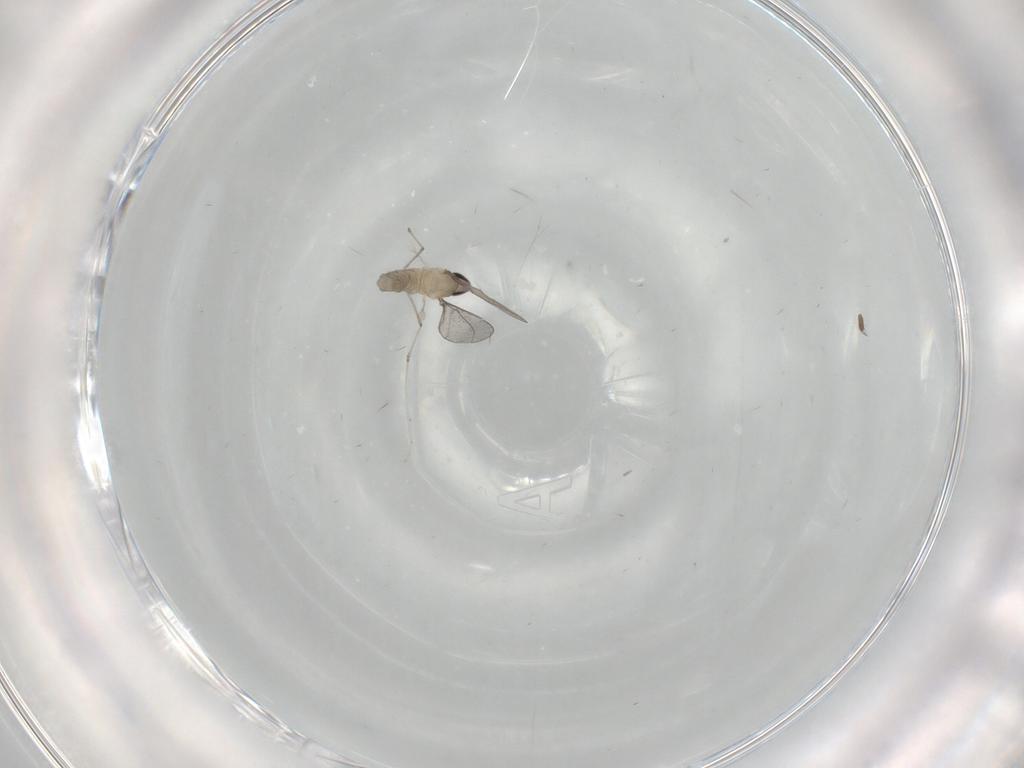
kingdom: Animalia
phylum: Arthropoda
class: Insecta
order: Diptera
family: Cecidomyiidae
